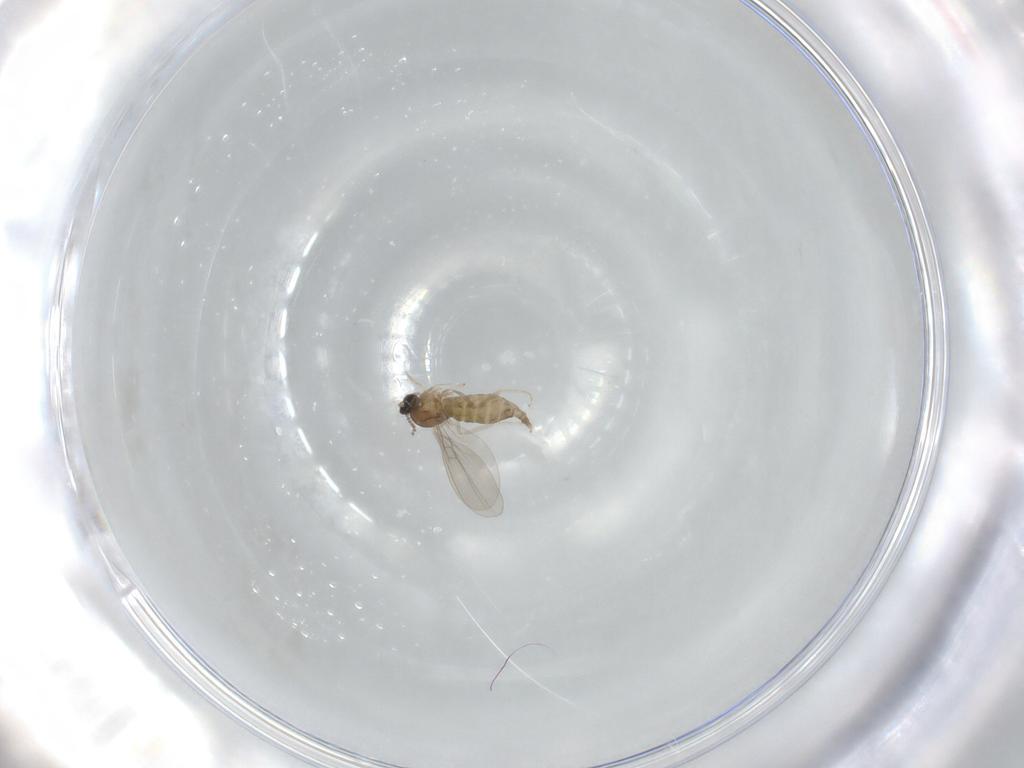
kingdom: Animalia
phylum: Arthropoda
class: Insecta
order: Diptera
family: Cecidomyiidae
